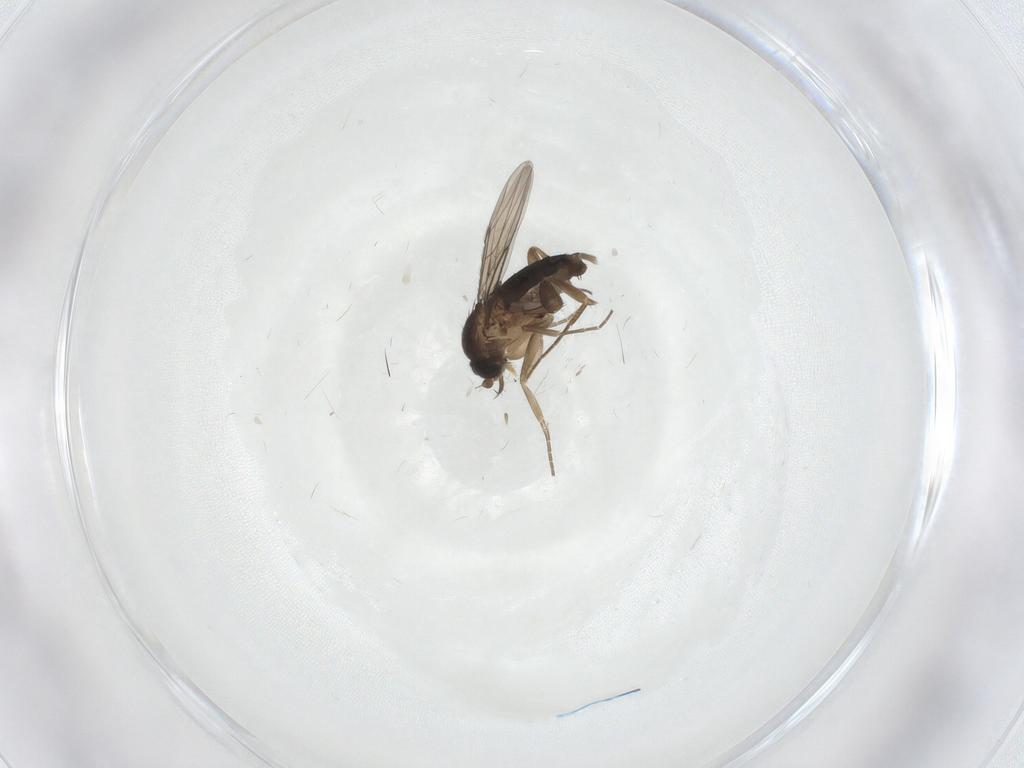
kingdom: Animalia
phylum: Arthropoda
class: Insecta
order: Diptera
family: Phoridae
